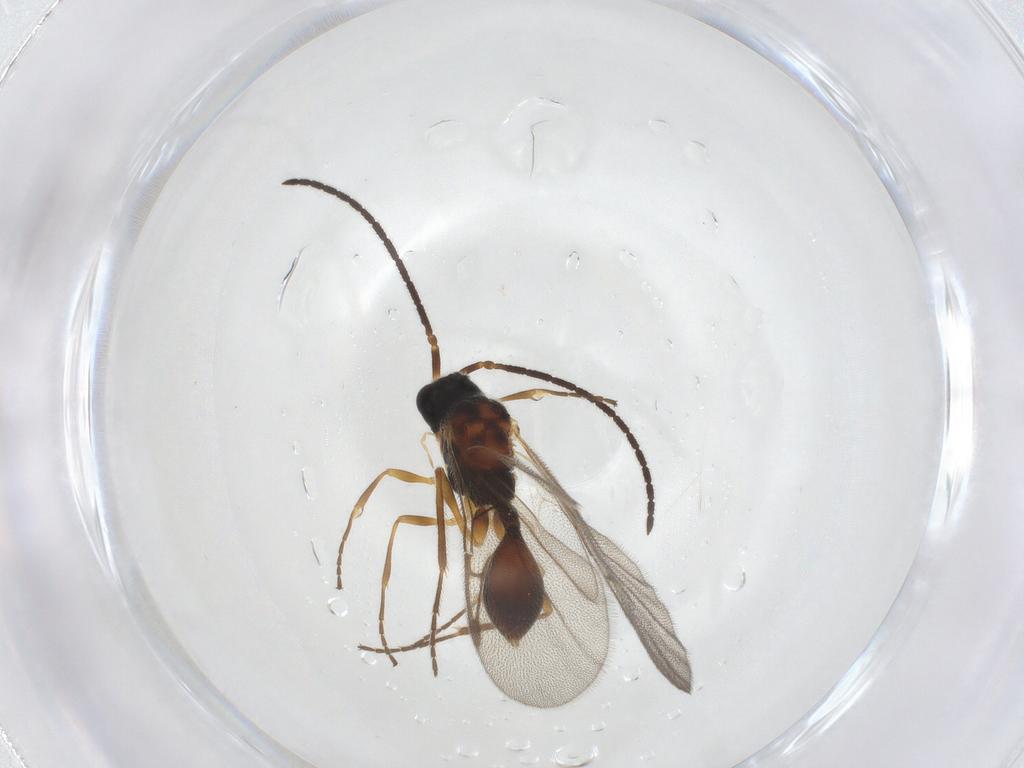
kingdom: Animalia
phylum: Arthropoda
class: Insecta
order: Hymenoptera
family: Diapriidae
